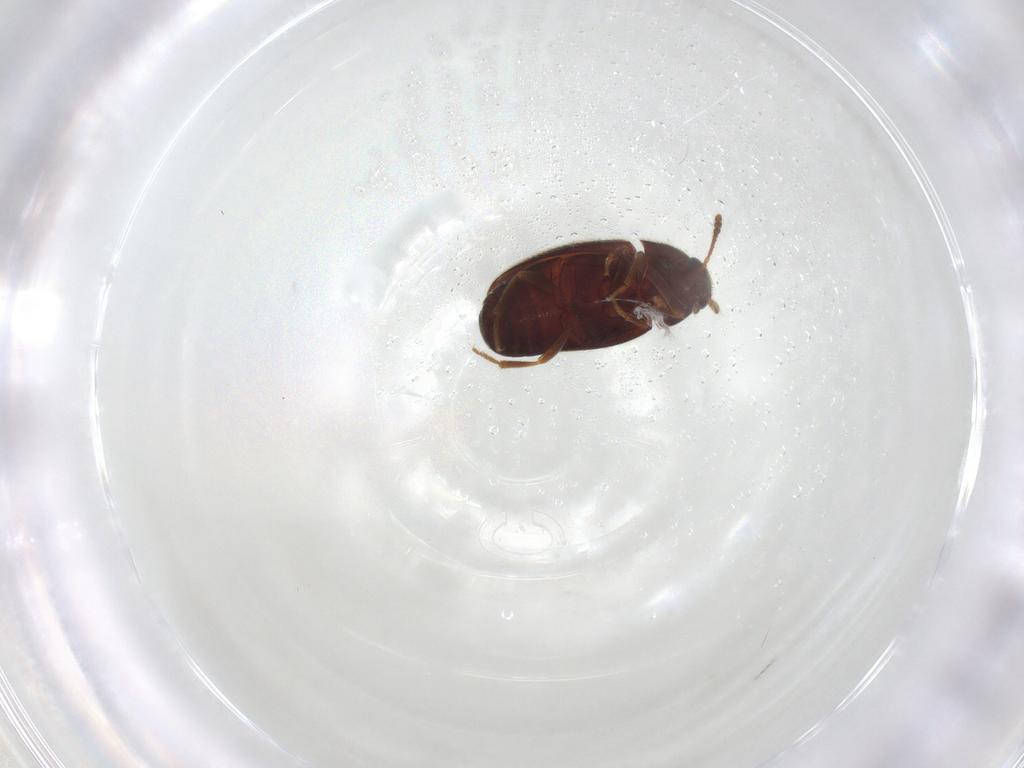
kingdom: Animalia
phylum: Arthropoda
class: Insecta
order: Coleoptera
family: Mycetophagidae
